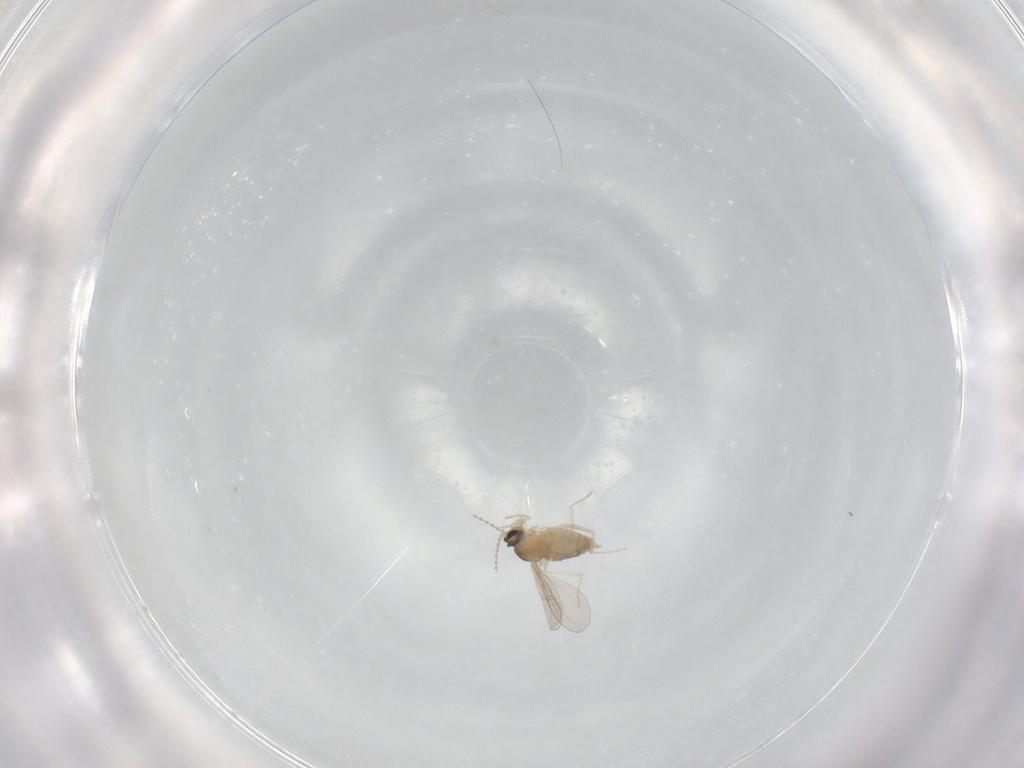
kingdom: Animalia
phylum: Arthropoda
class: Insecta
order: Diptera
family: Cecidomyiidae
